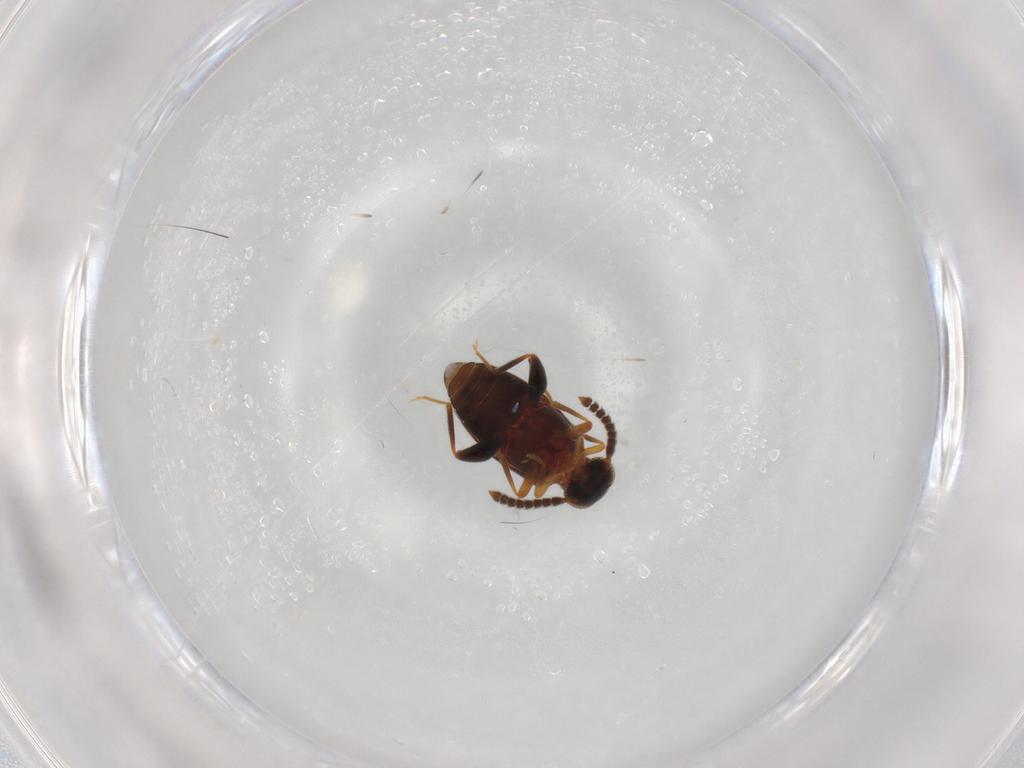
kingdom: Animalia
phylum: Arthropoda
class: Insecta
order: Coleoptera
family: Aderidae
